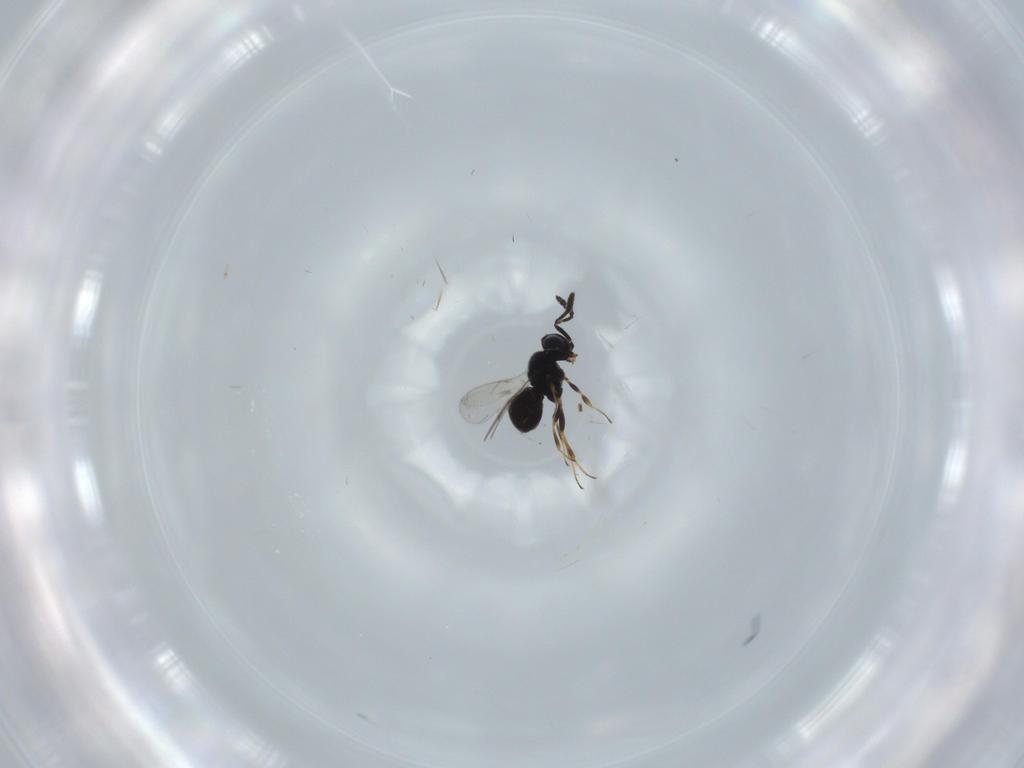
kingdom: Animalia
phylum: Arthropoda
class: Insecta
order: Hymenoptera
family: Scelionidae
